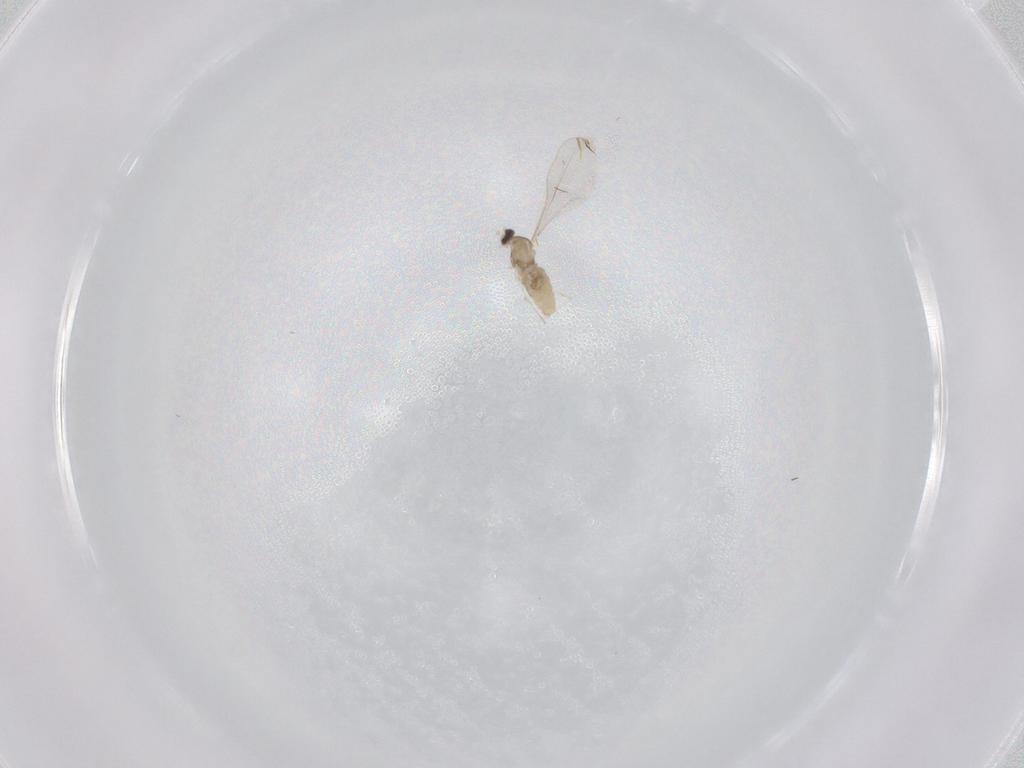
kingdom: Animalia
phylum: Arthropoda
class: Insecta
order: Diptera
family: Cecidomyiidae
